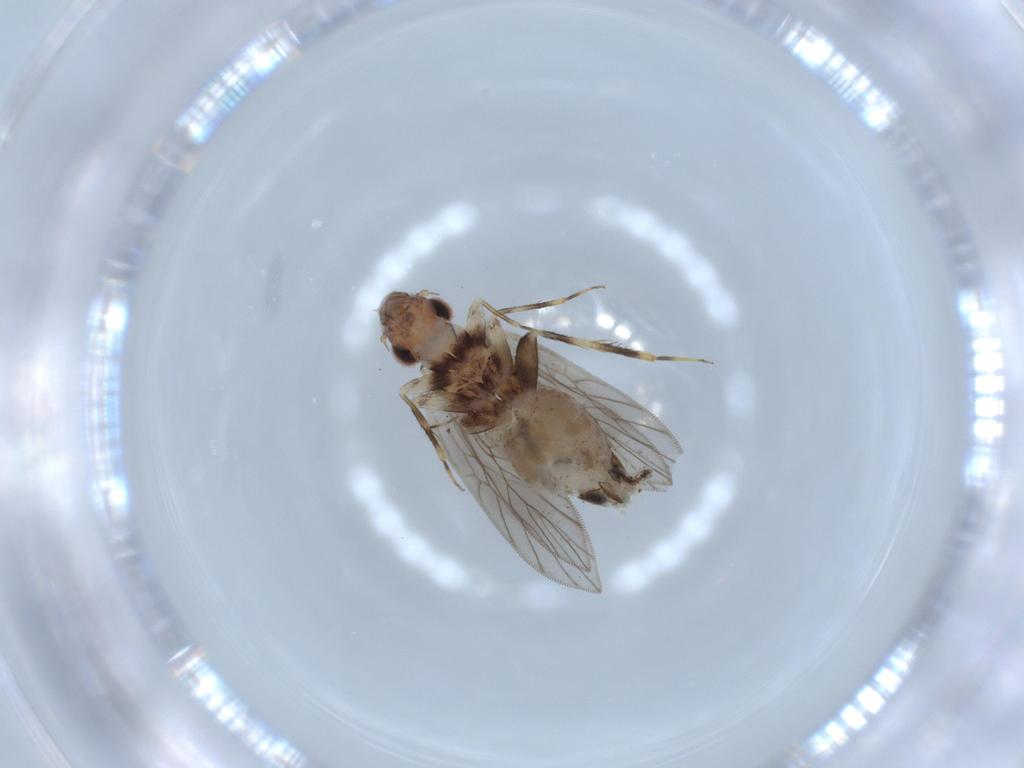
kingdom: Animalia
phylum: Arthropoda
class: Insecta
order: Psocodea
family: Lepidopsocidae
